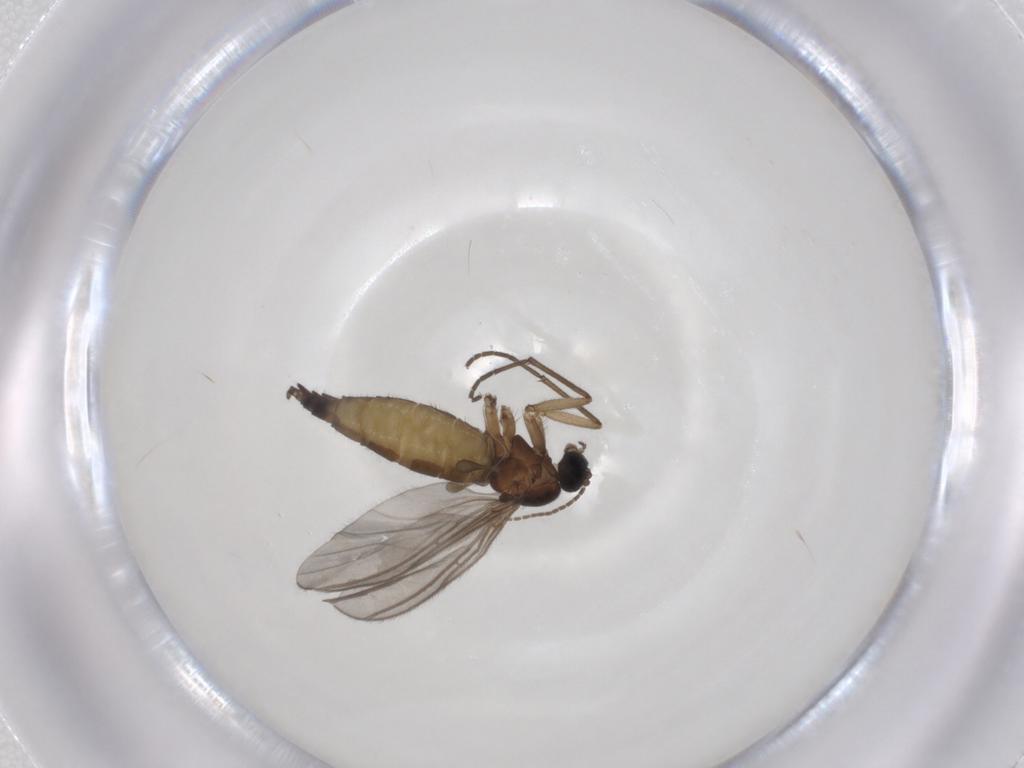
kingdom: Animalia
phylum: Arthropoda
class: Insecta
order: Diptera
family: Sciaridae
